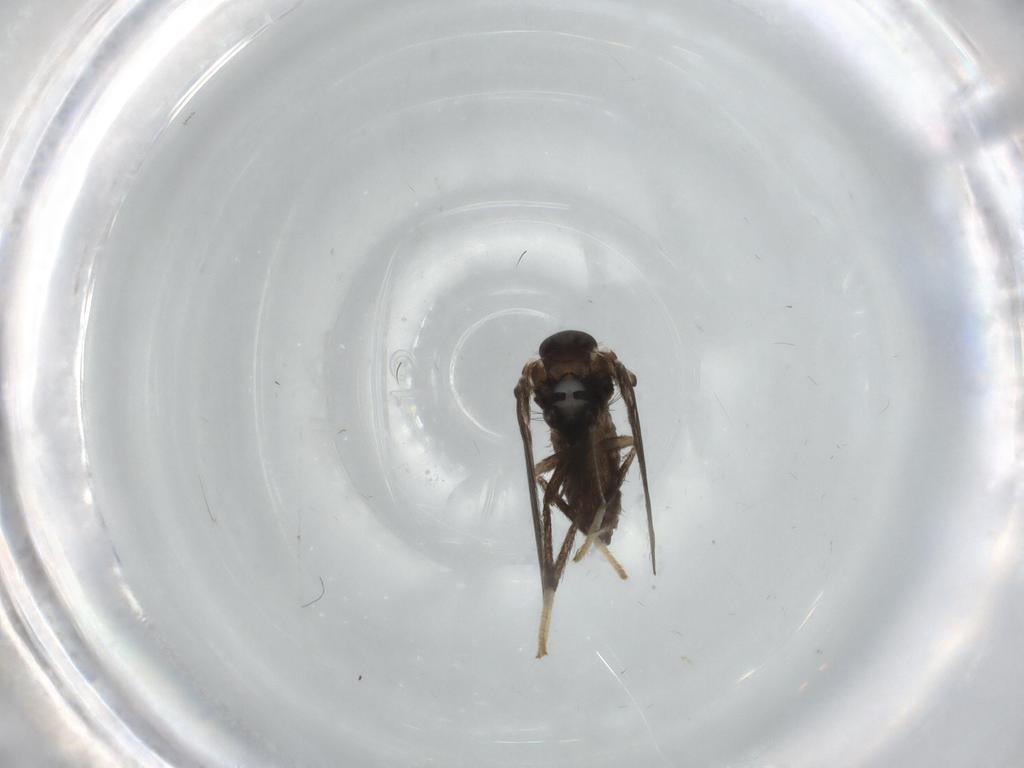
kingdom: Animalia
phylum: Arthropoda
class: Insecta
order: Diptera
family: Psychodidae
